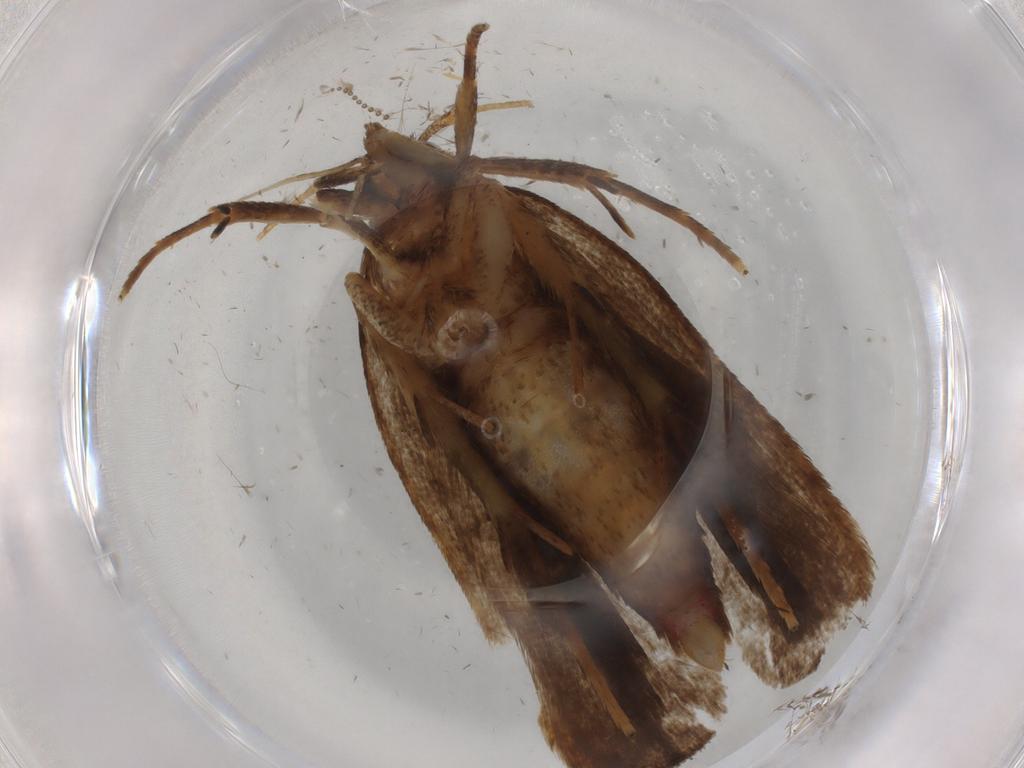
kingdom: Animalia
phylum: Arthropoda
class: Insecta
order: Lepidoptera
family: Autostichidae
